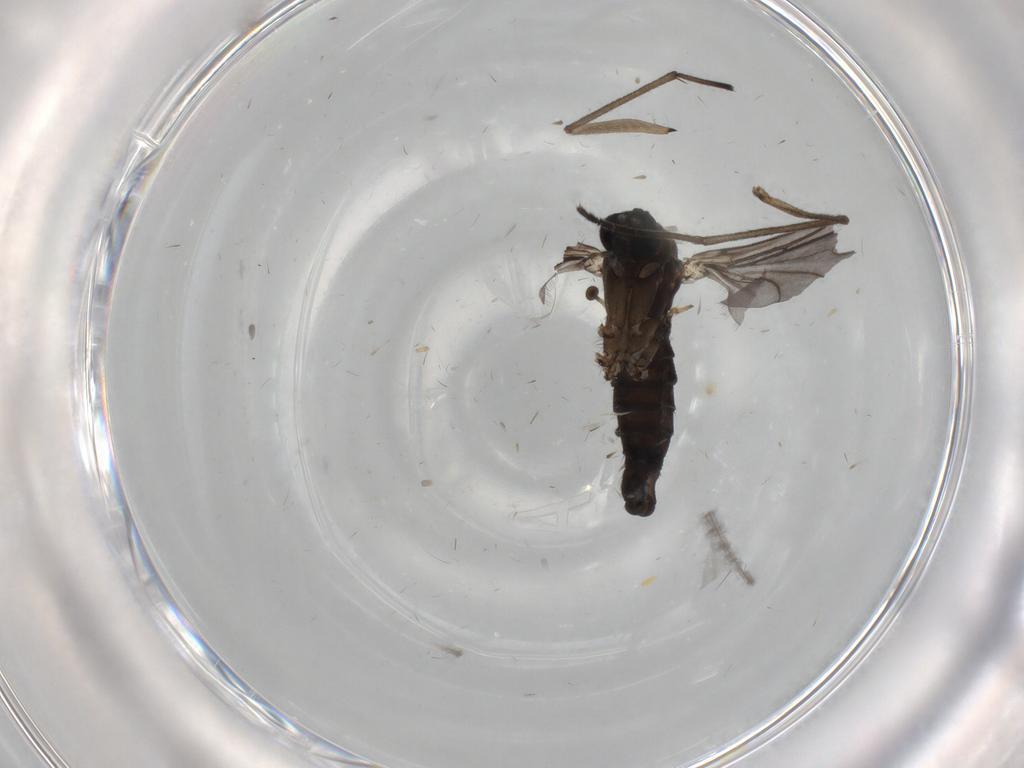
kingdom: Animalia
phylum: Arthropoda
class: Insecta
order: Diptera
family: Sciaridae
